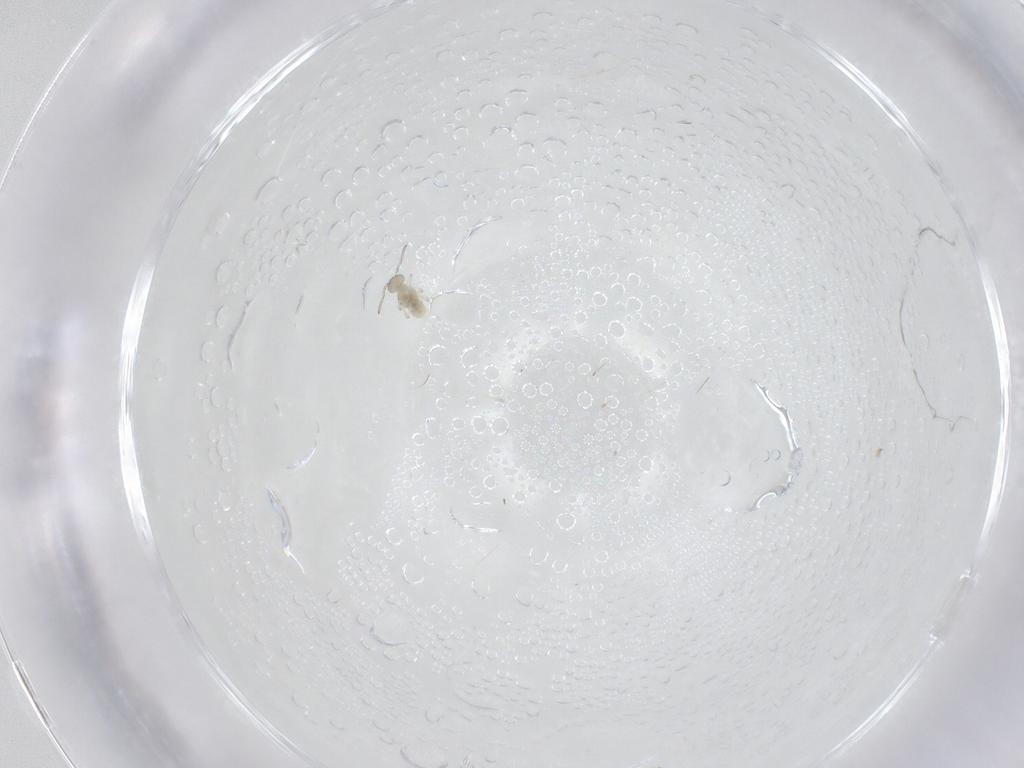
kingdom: Animalia
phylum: Arthropoda
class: Collembola
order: Symphypleona
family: Bourletiellidae
